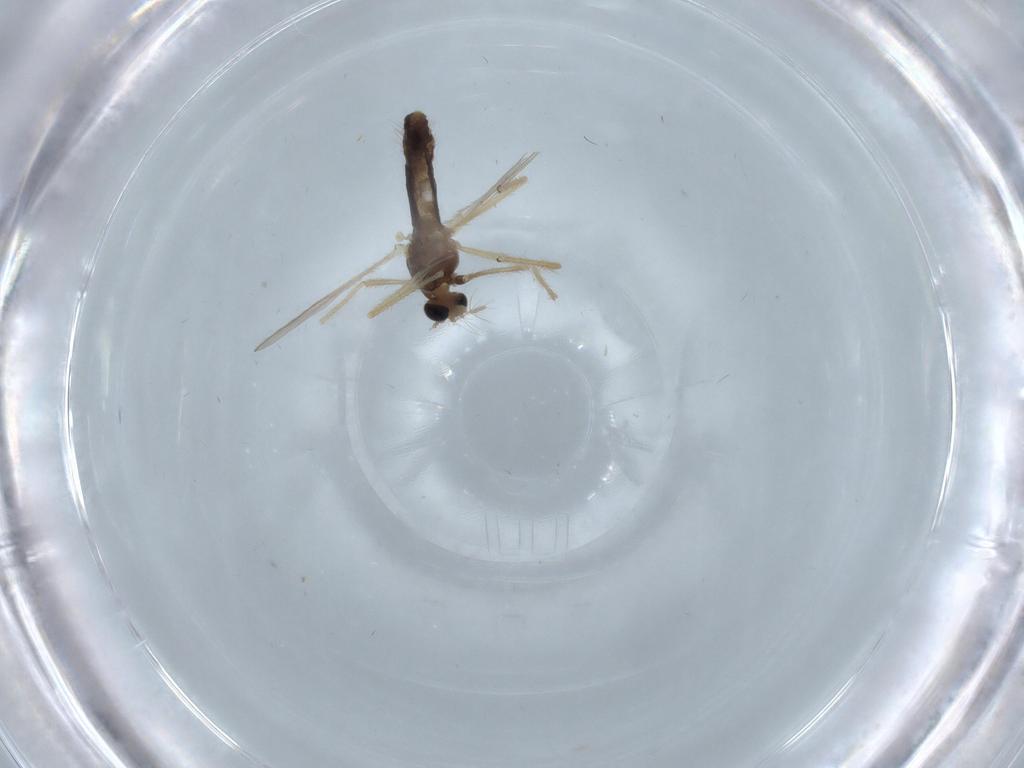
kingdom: Animalia
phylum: Arthropoda
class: Insecta
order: Diptera
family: Chironomidae
